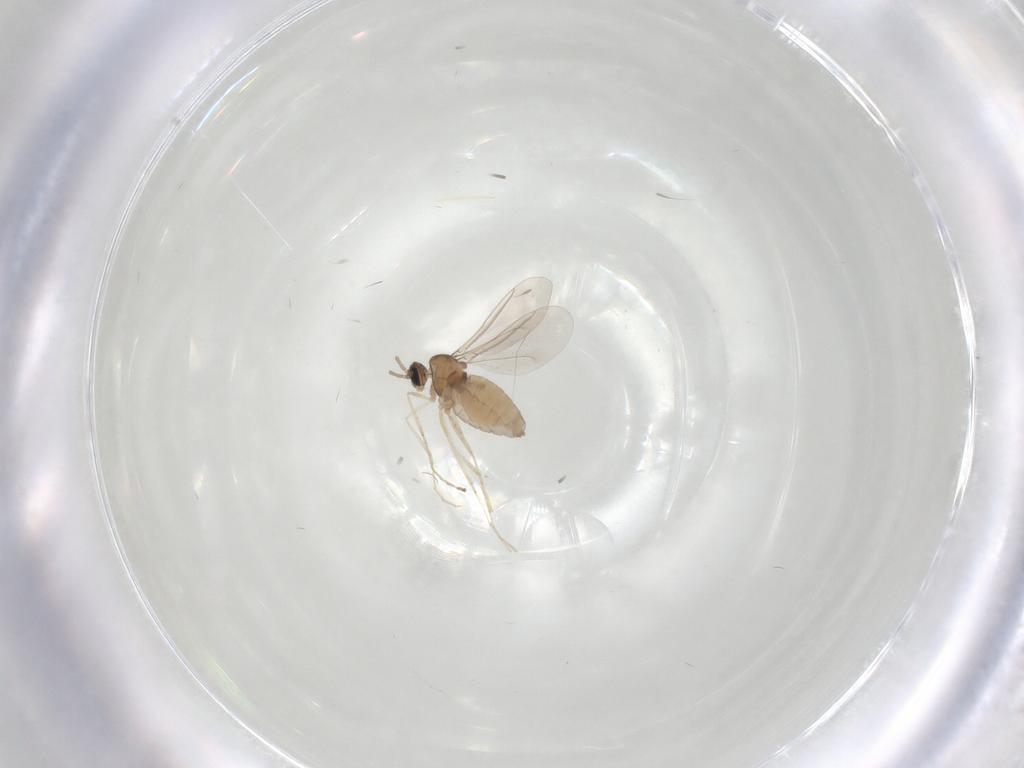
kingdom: Animalia
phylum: Arthropoda
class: Insecta
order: Diptera
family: Cecidomyiidae
